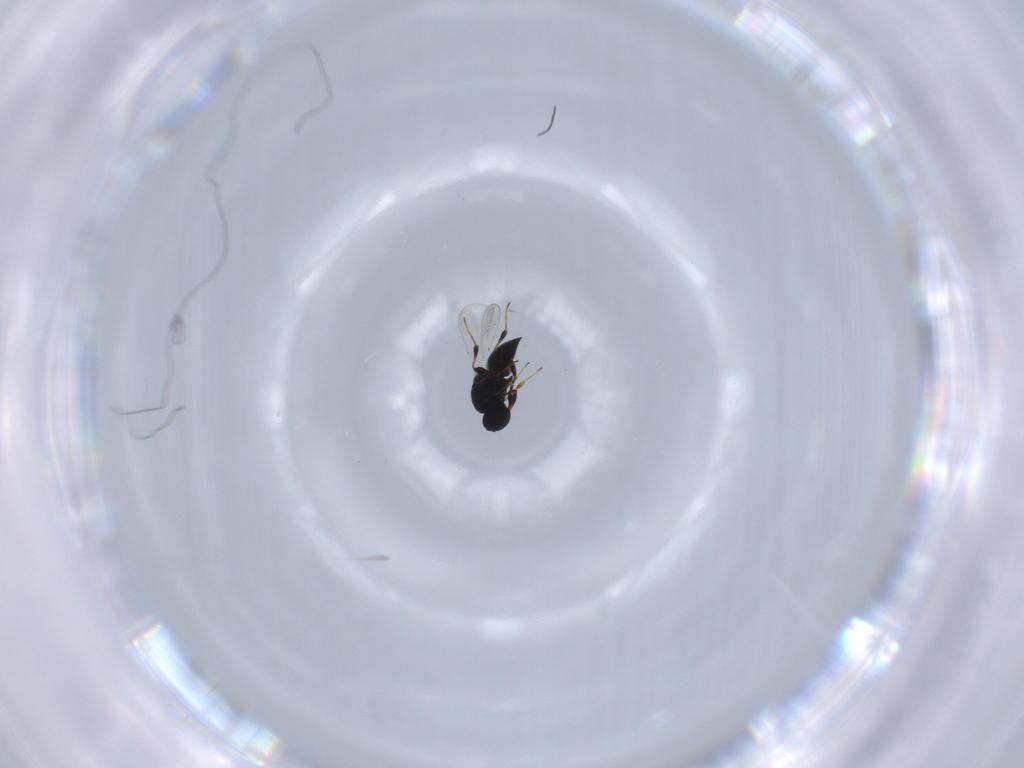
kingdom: Animalia
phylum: Arthropoda
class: Insecta
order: Hymenoptera
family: Platygastridae
